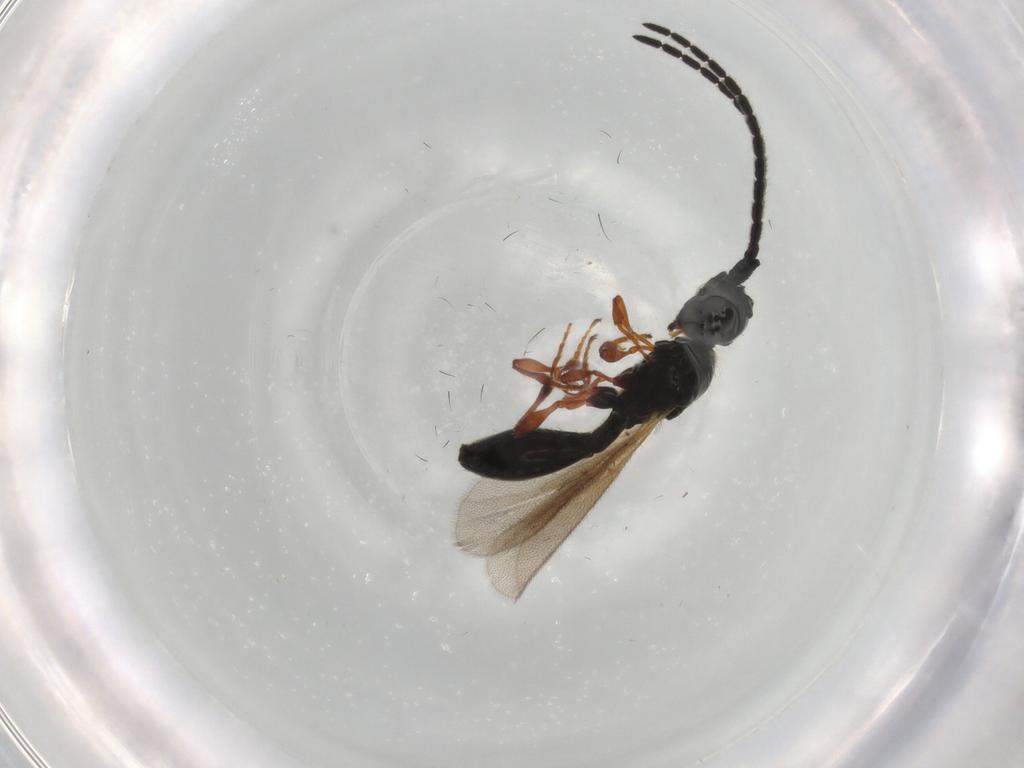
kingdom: Animalia
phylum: Arthropoda
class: Insecta
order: Hymenoptera
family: Diapriidae
